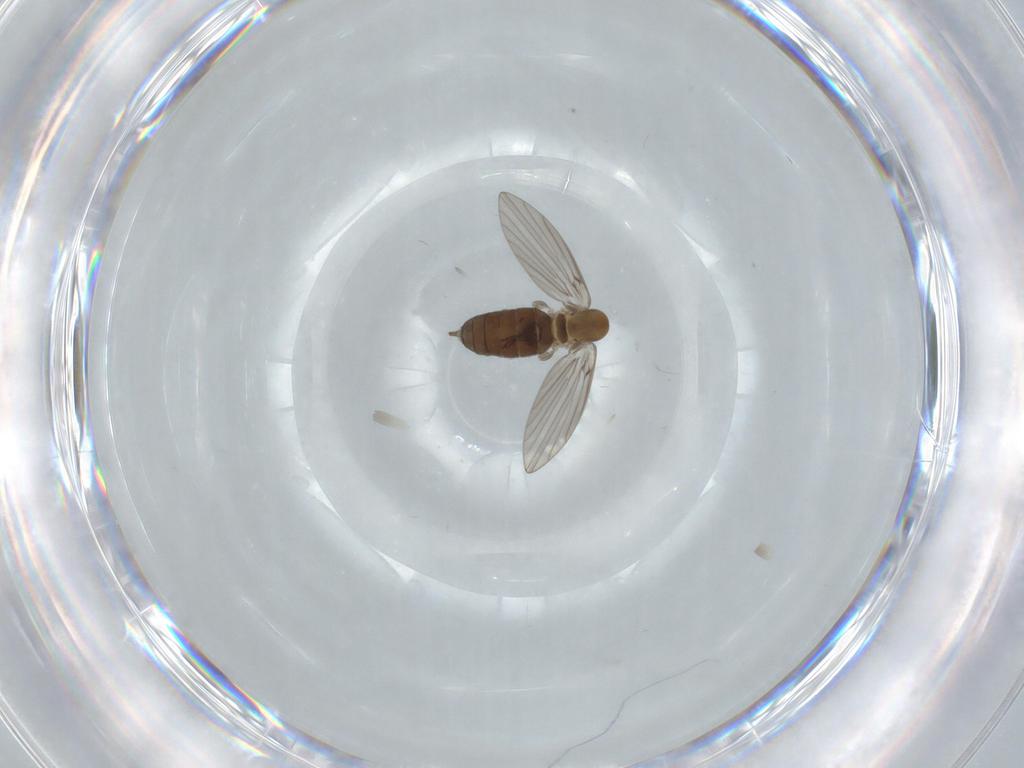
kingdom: Animalia
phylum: Arthropoda
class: Insecta
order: Diptera
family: Psychodidae
